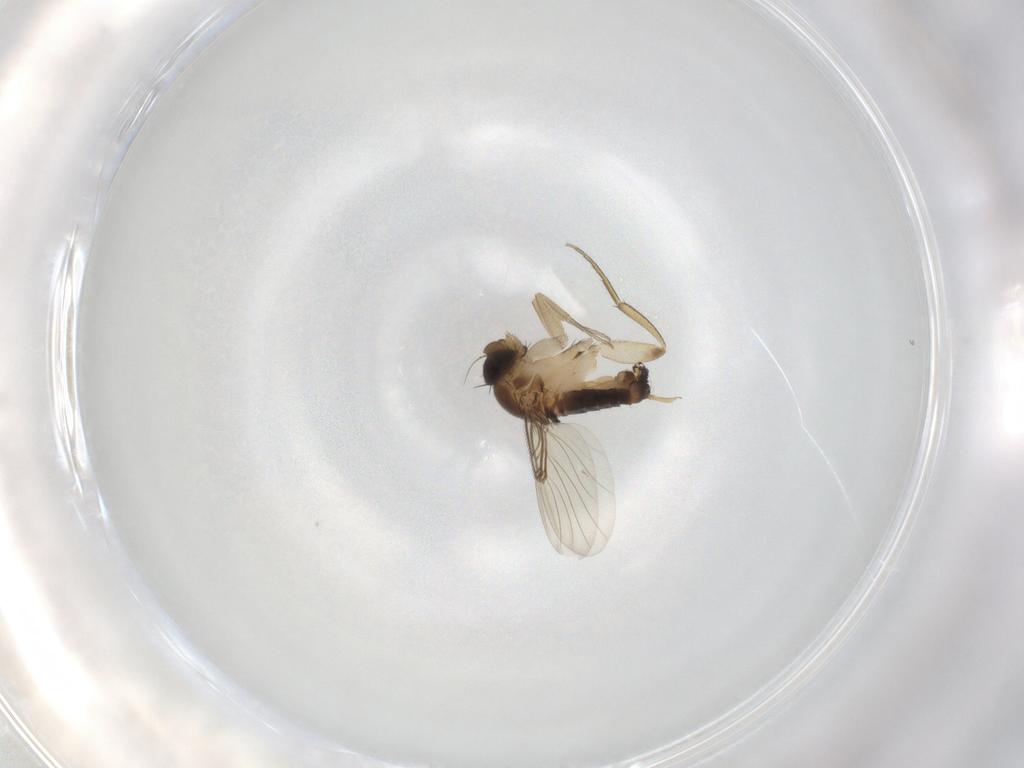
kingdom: Animalia
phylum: Arthropoda
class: Insecta
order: Diptera
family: Phoridae
